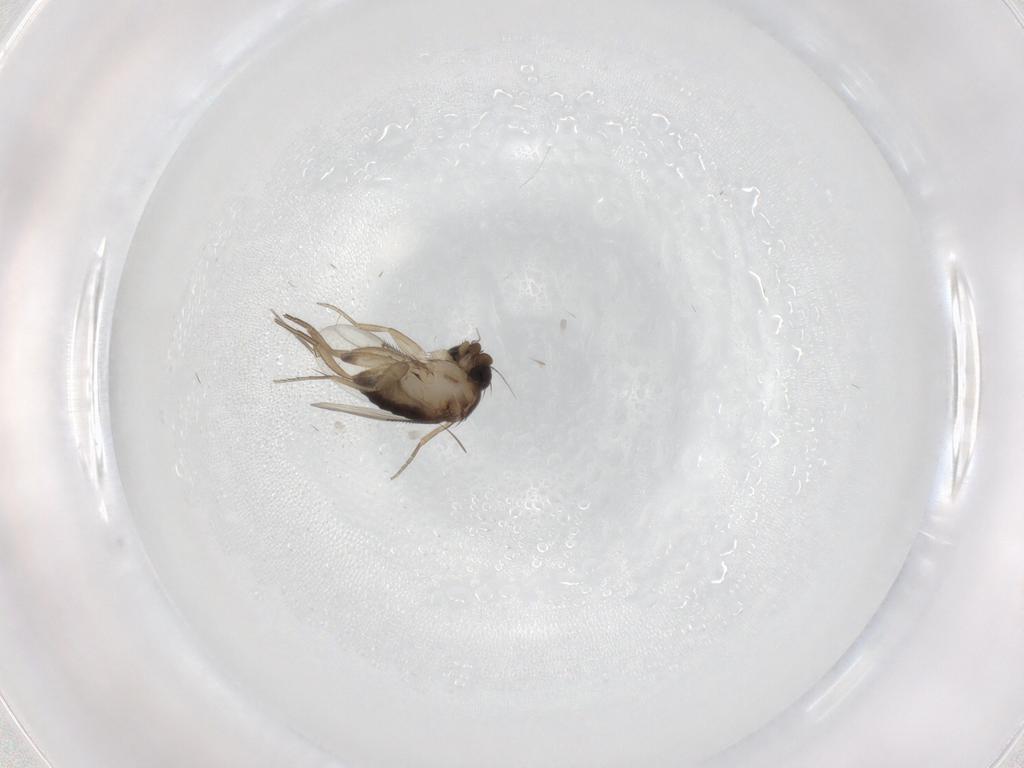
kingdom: Animalia
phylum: Arthropoda
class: Insecta
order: Diptera
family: Phoridae
